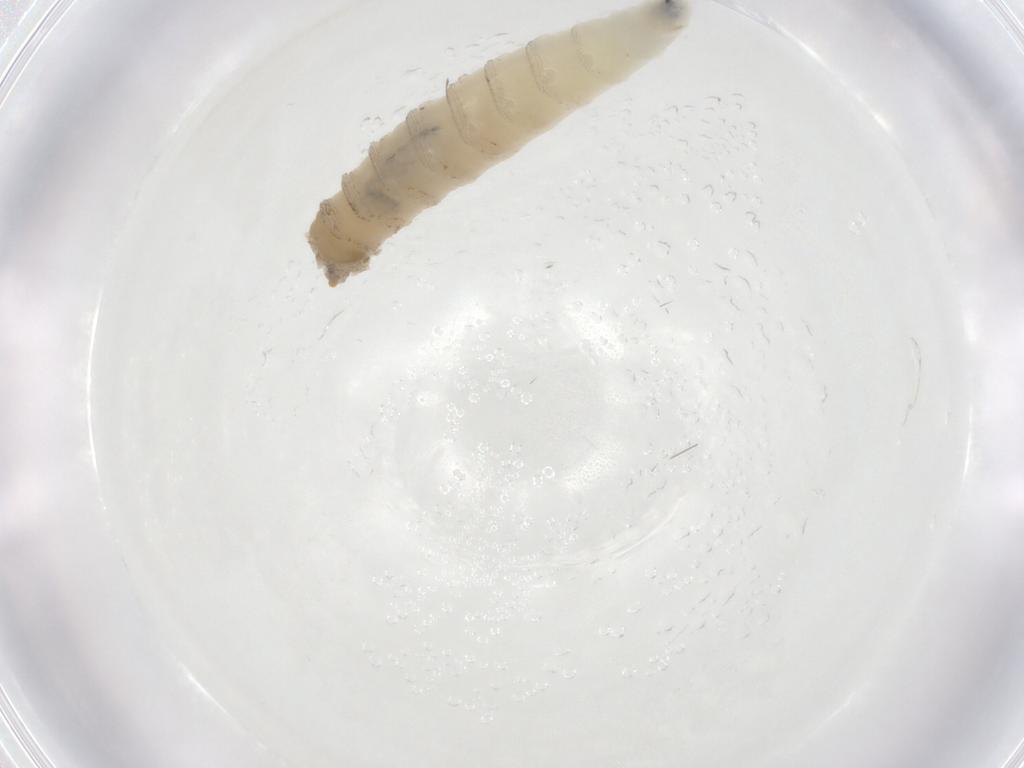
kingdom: Animalia
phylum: Arthropoda
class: Insecta
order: Diptera
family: Drosophilidae
